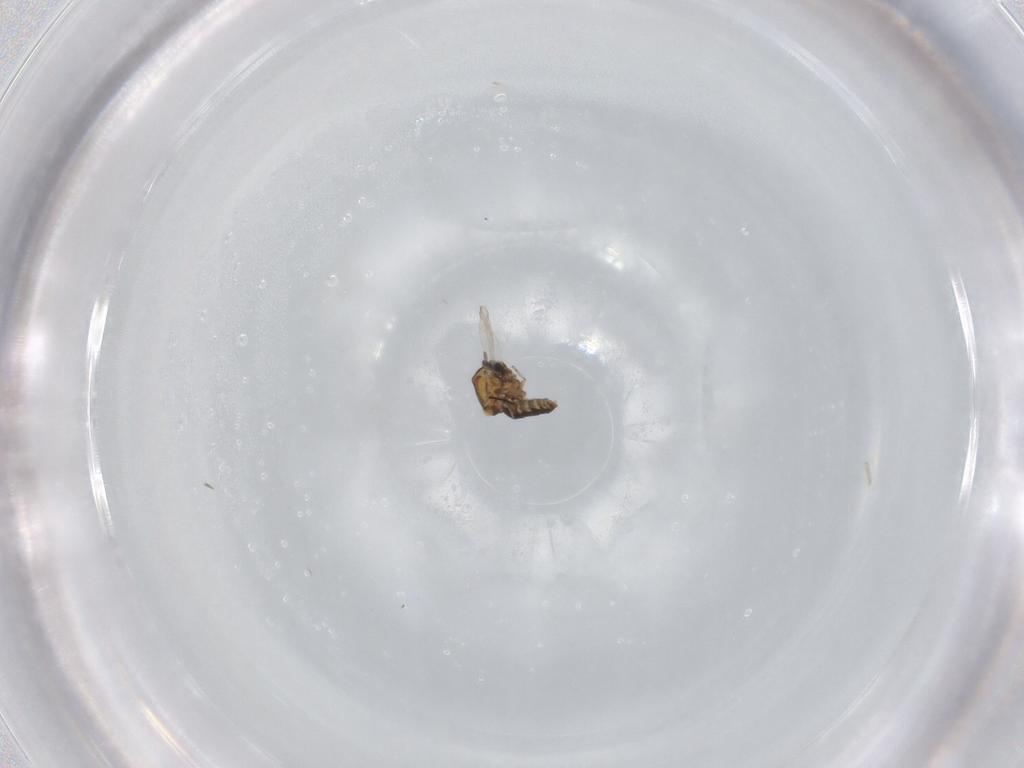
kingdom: Animalia
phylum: Arthropoda
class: Insecta
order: Diptera
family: Ceratopogonidae
